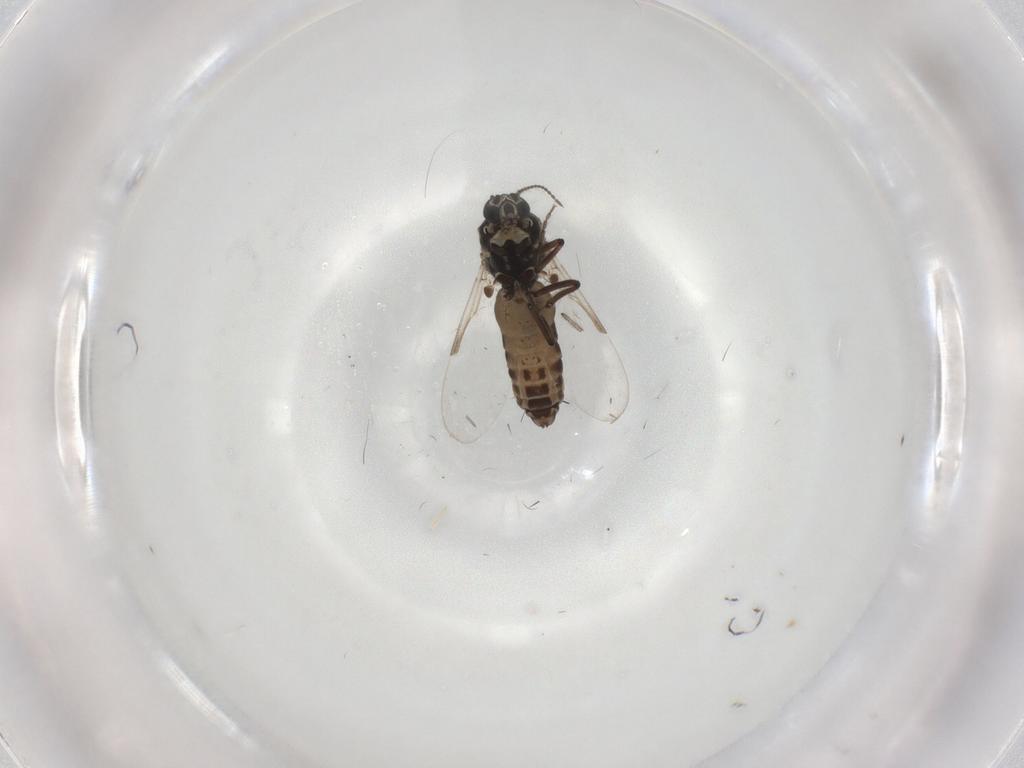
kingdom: Animalia
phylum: Arthropoda
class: Insecta
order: Diptera
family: Ceratopogonidae
